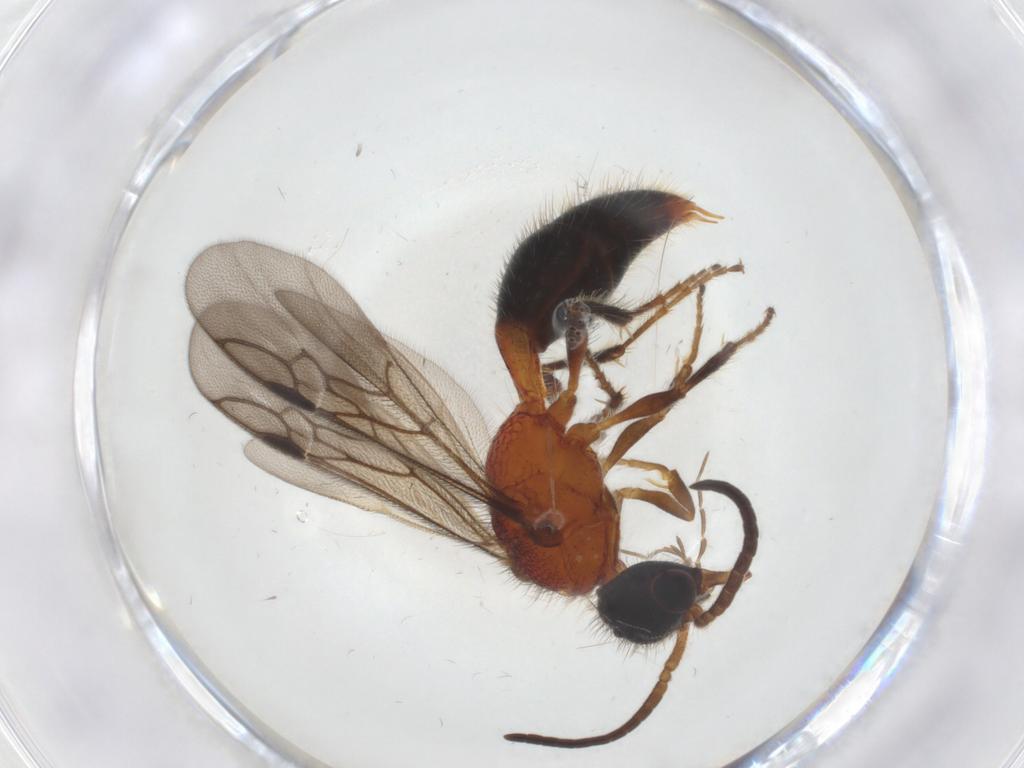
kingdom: Animalia
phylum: Arthropoda
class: Insecta
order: Hymenoptera
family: Mutillidae
